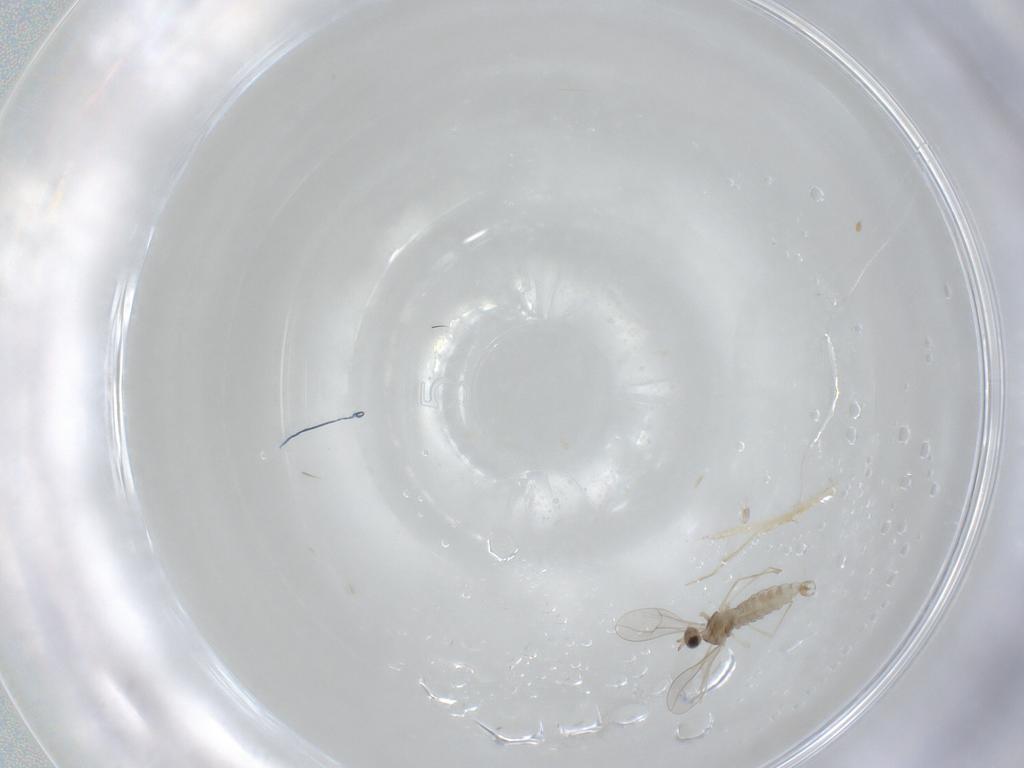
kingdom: Animalia
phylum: Arthropoda
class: Insecta
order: Diptera
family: Cecidomyiidae
